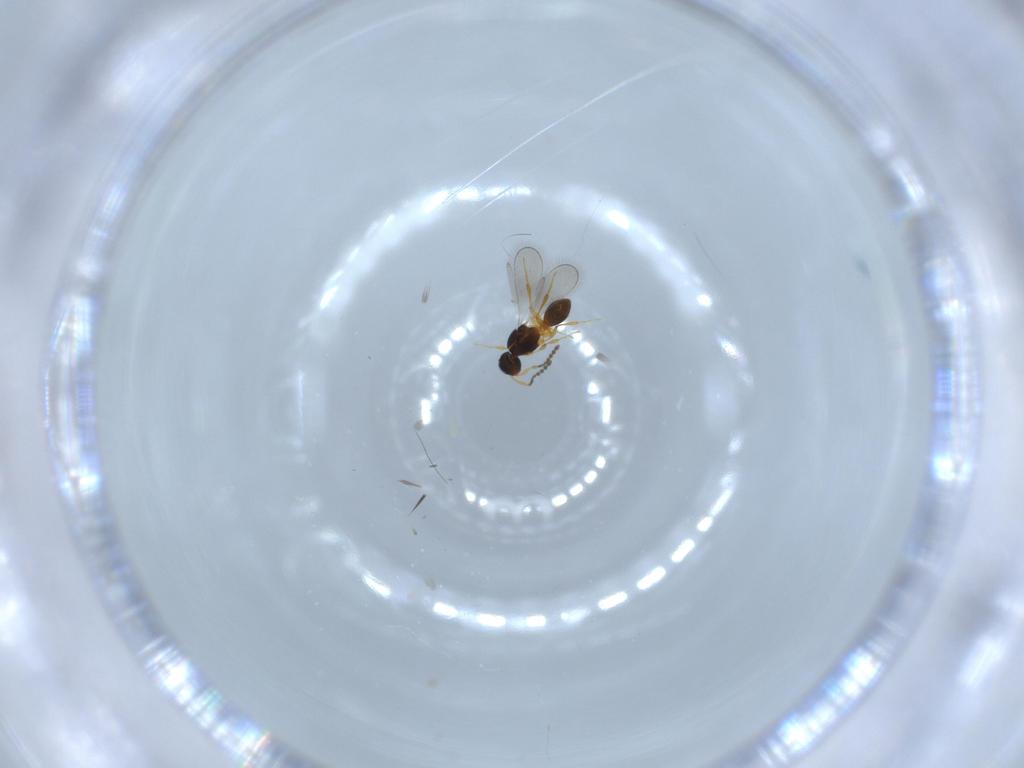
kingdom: Animalia
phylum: Arthropoda
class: Insecta
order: Hymenoptera
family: Platygastridae
